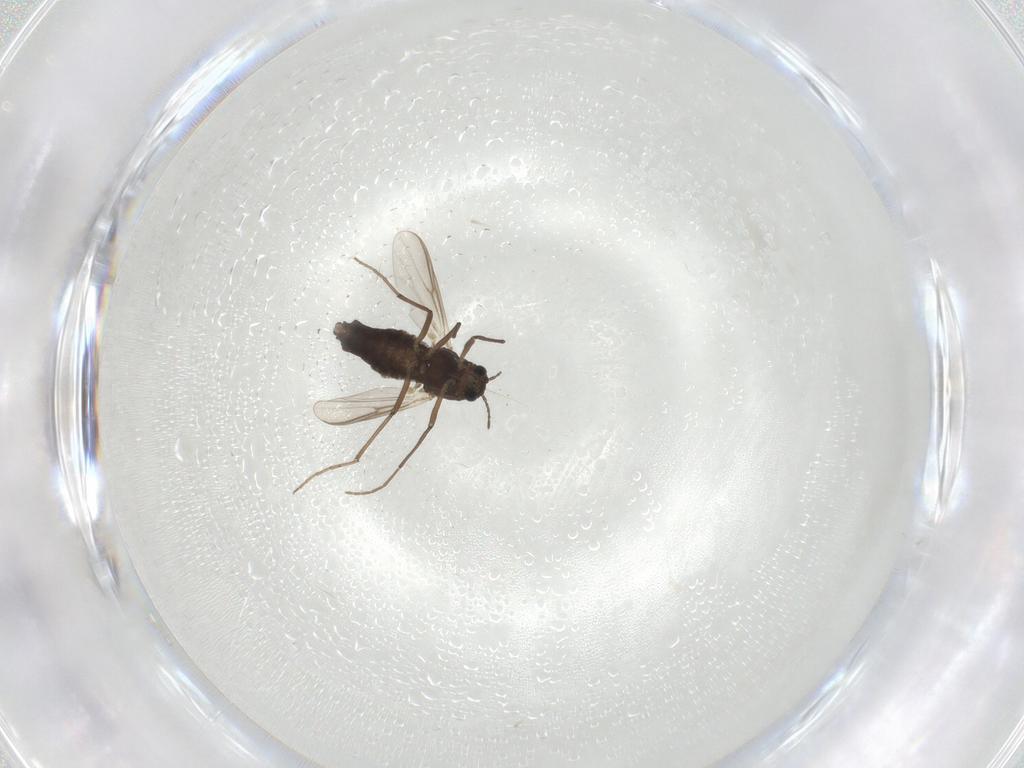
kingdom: Animalia
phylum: Arthropoda
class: Insecta
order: Diptera
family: Chironomidae
